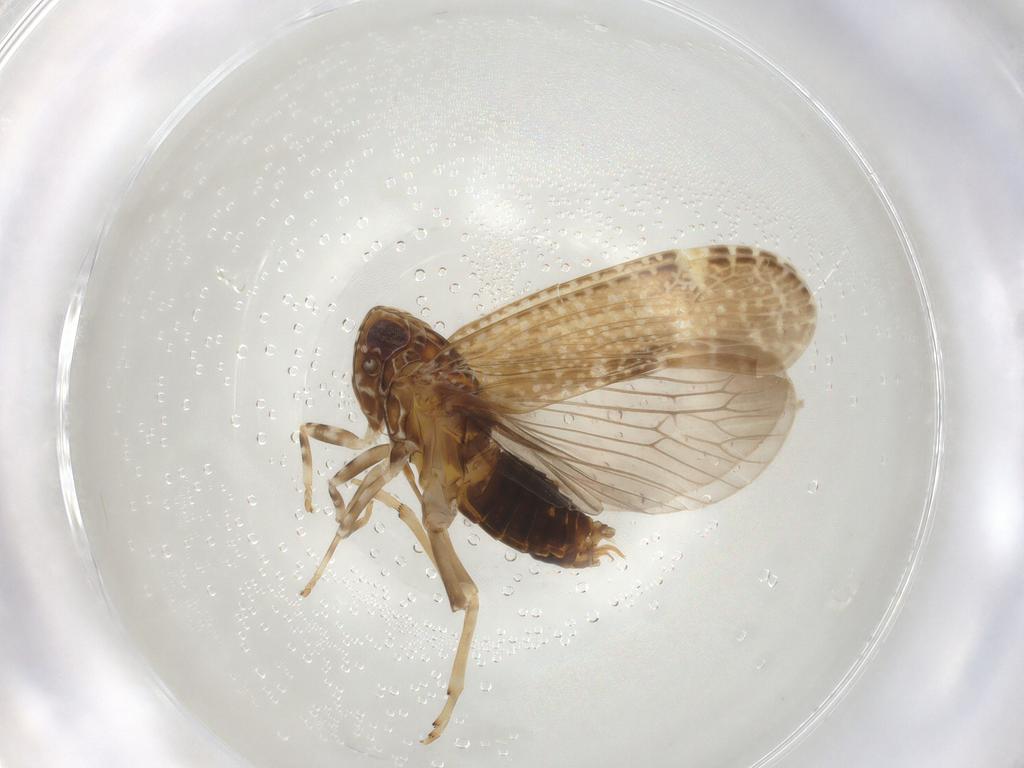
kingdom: Animalia
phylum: Arthropoda
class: Insecta
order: Hemiptera
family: Achilidae
